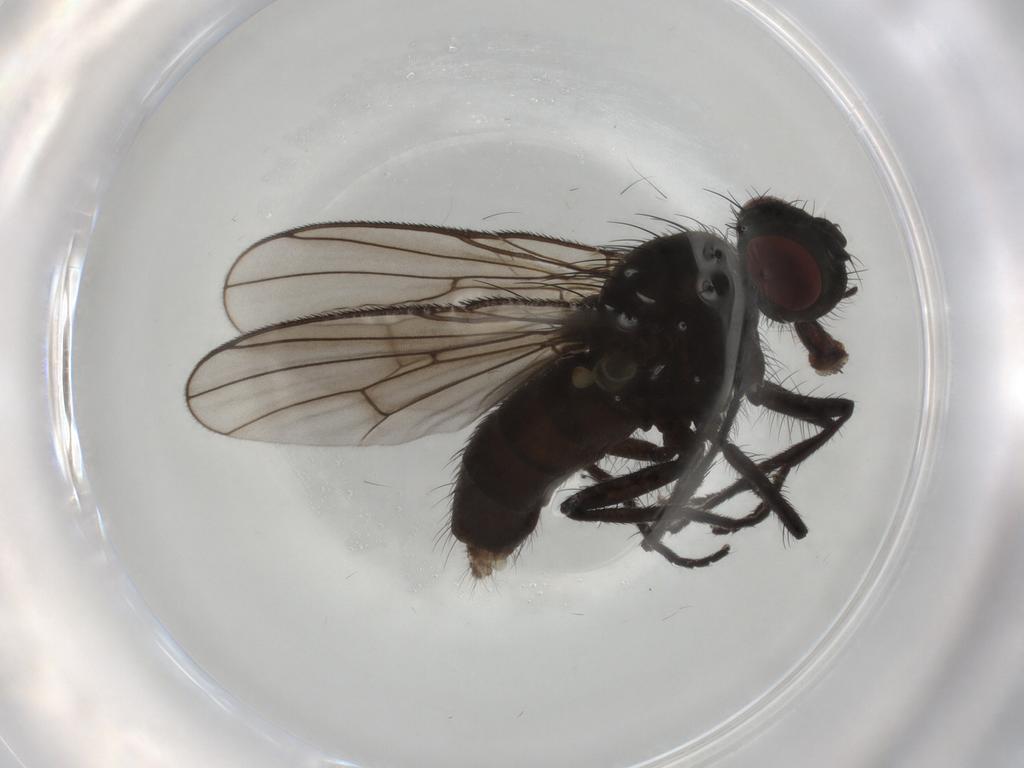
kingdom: Animalia
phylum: Arthropoda
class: Insecta
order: Diptera
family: Muscidae
